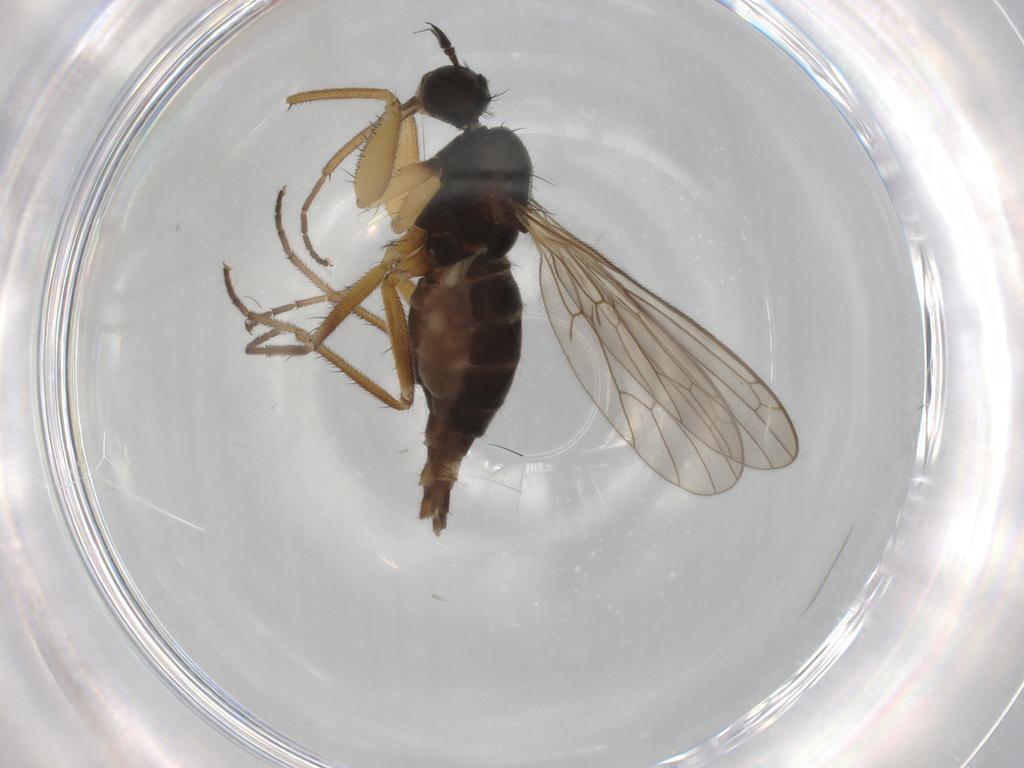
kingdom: Animalia
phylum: Arthropoda
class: Insecta
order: Diptera
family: Empididae
